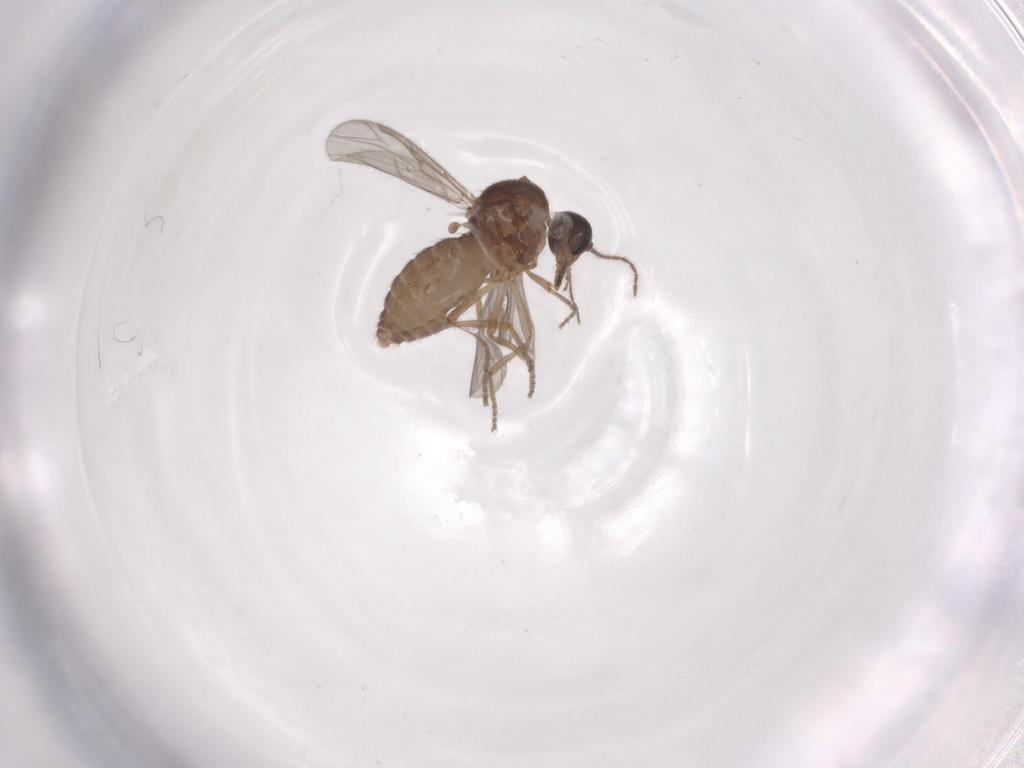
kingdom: Animalia
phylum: Arthropoda
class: Insecta
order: Diptera
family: Ceratopogonidae
